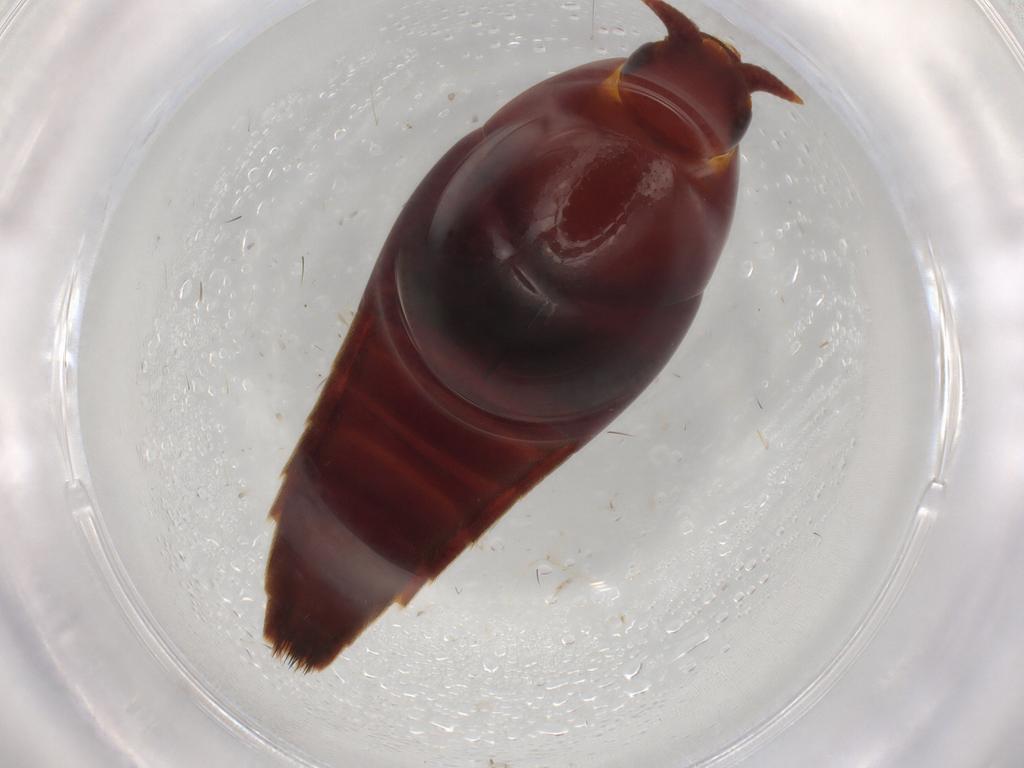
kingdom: Animalia
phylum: Arthropoda
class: Insecta
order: Coleoptera
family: Staphylinidae
